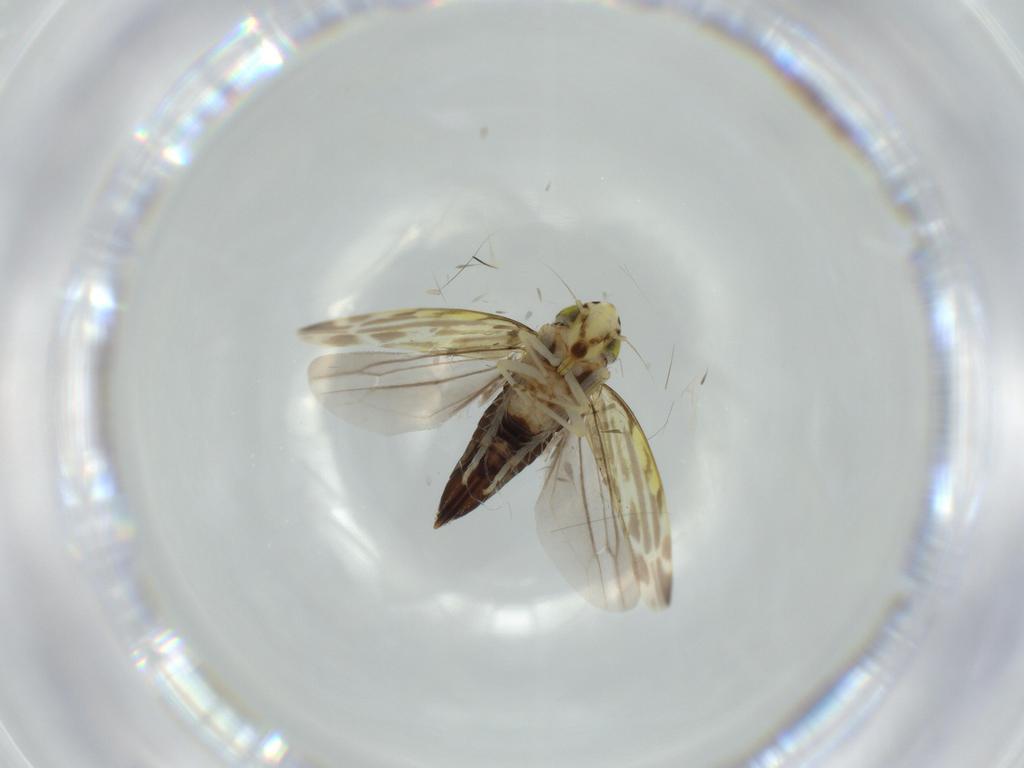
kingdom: Animalia
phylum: Arthropoda
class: Insecta
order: Hemiptera
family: Cicadellidae
